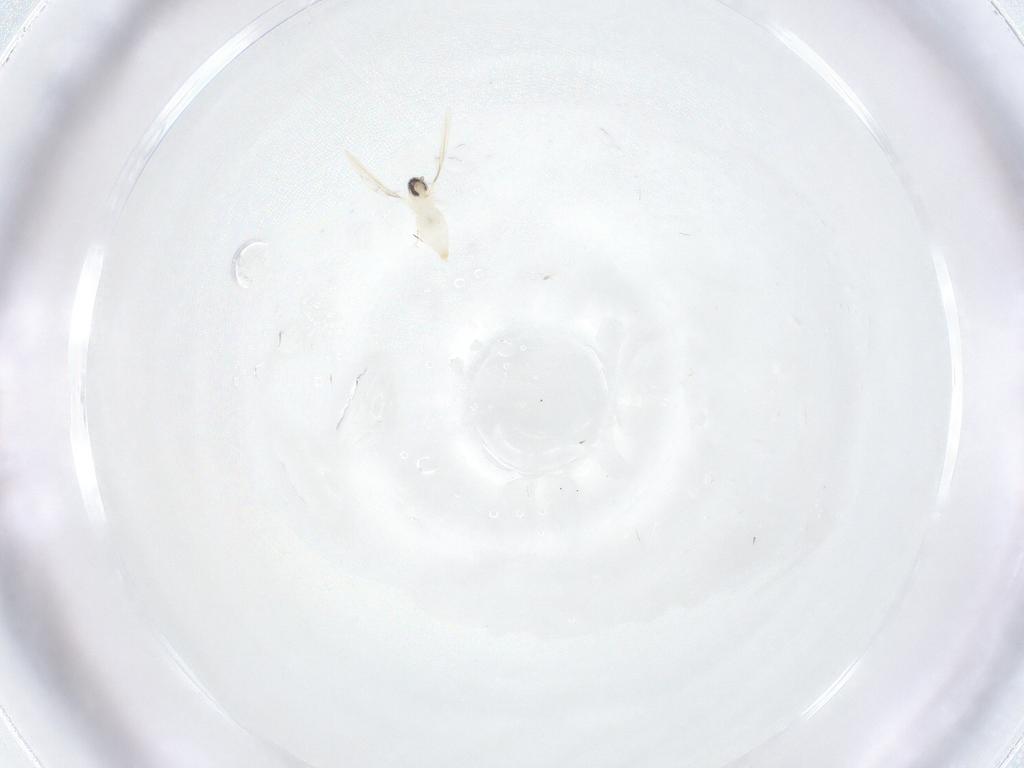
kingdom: Animalia
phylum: Arthropoda
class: Insecta
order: Diptera
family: Cecidomyiidae
